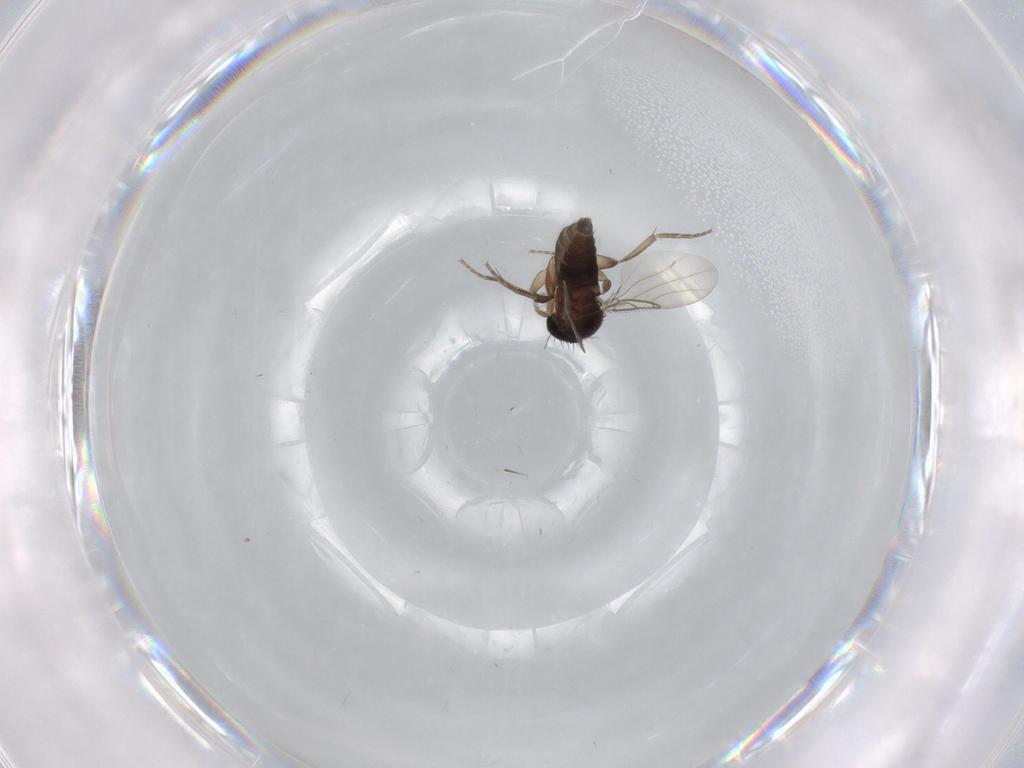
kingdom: Animalia
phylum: Arthropoda
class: Insecta
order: Diptera
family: Phoridae
